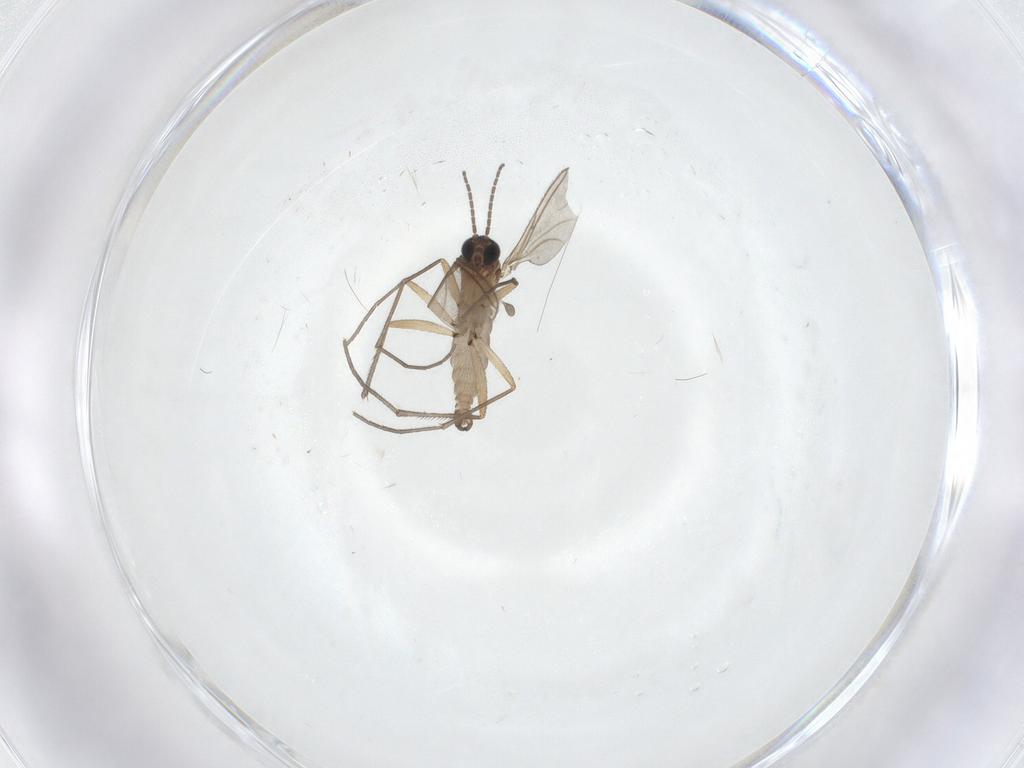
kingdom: Animalia
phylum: Arthropoda
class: Insecta
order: Diptera
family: Sciaridae
